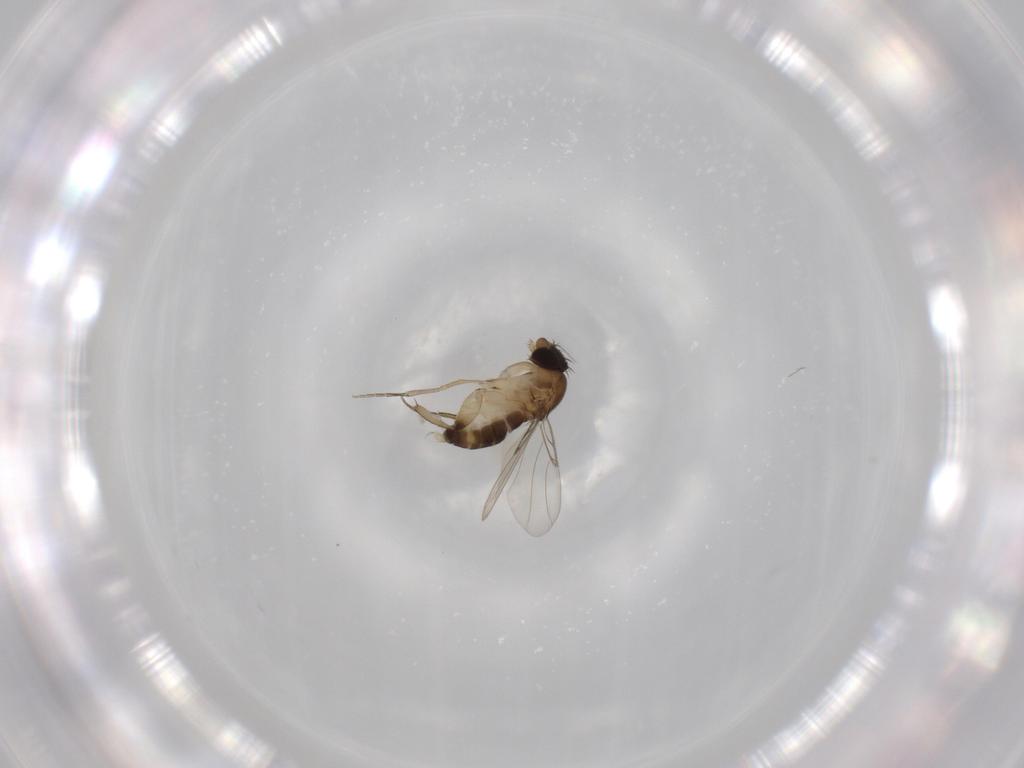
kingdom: Animalia
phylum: Arthropoda
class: Insecta
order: Diptera
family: Phoridae
